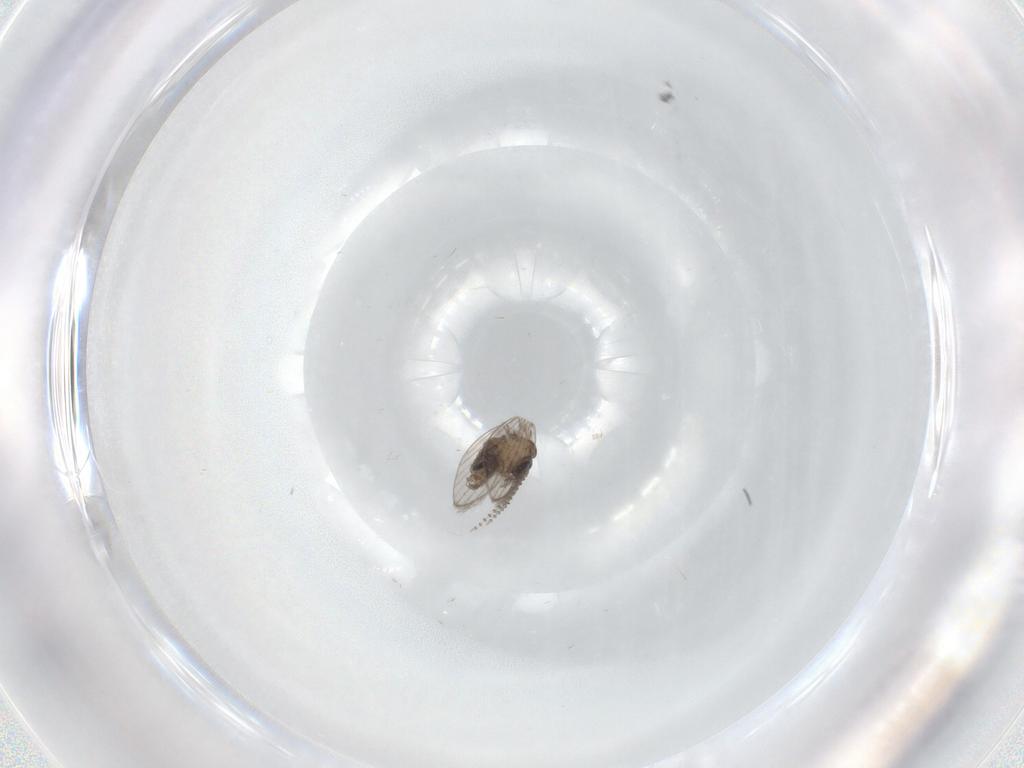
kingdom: Animalia
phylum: Arthropoda
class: Insecta
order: Diptera
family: Psychodidae
